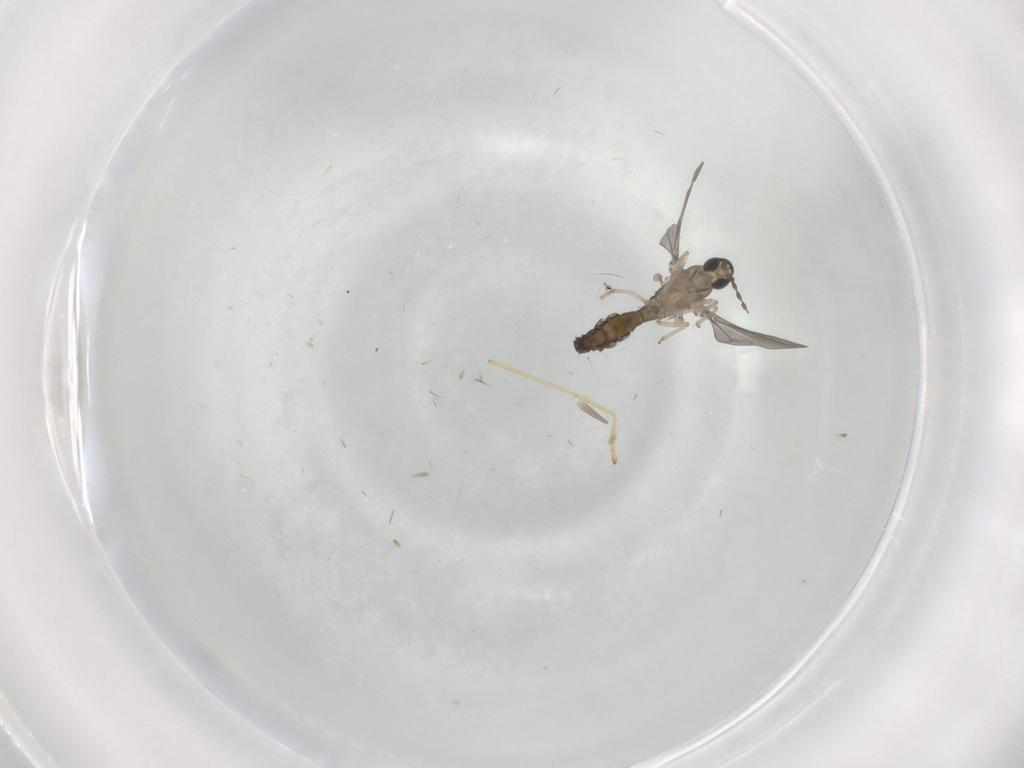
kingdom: Animalia
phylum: Arthropoda
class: Insecta
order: Diptera
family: Cecidomyiidae
